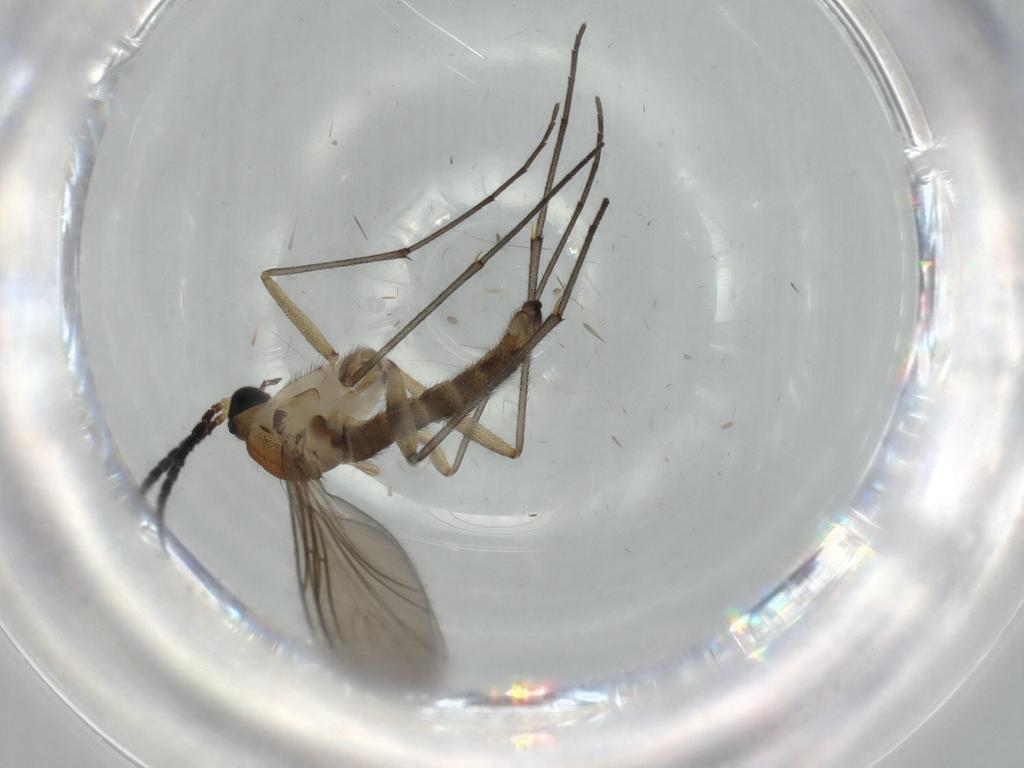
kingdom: Animalia
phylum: Arthropoda
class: Insecta
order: Diptera
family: Sciaridae
